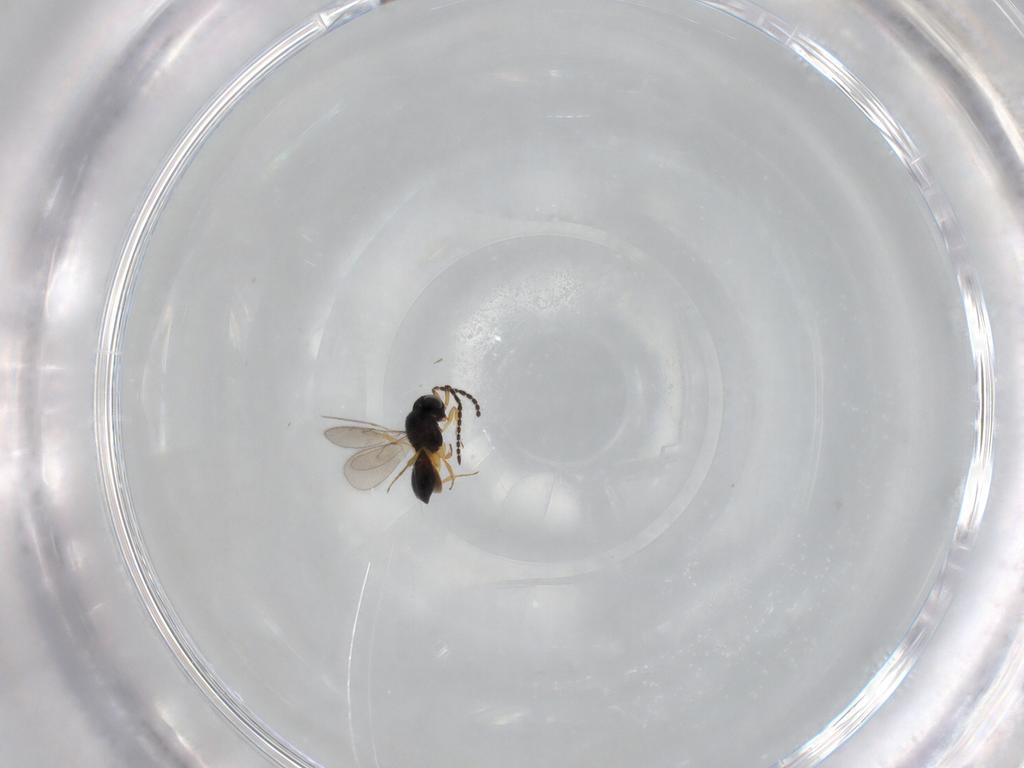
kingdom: Animalia
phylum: Arthropoda
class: Insecta
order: Hymenoptera
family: Scelionidae
